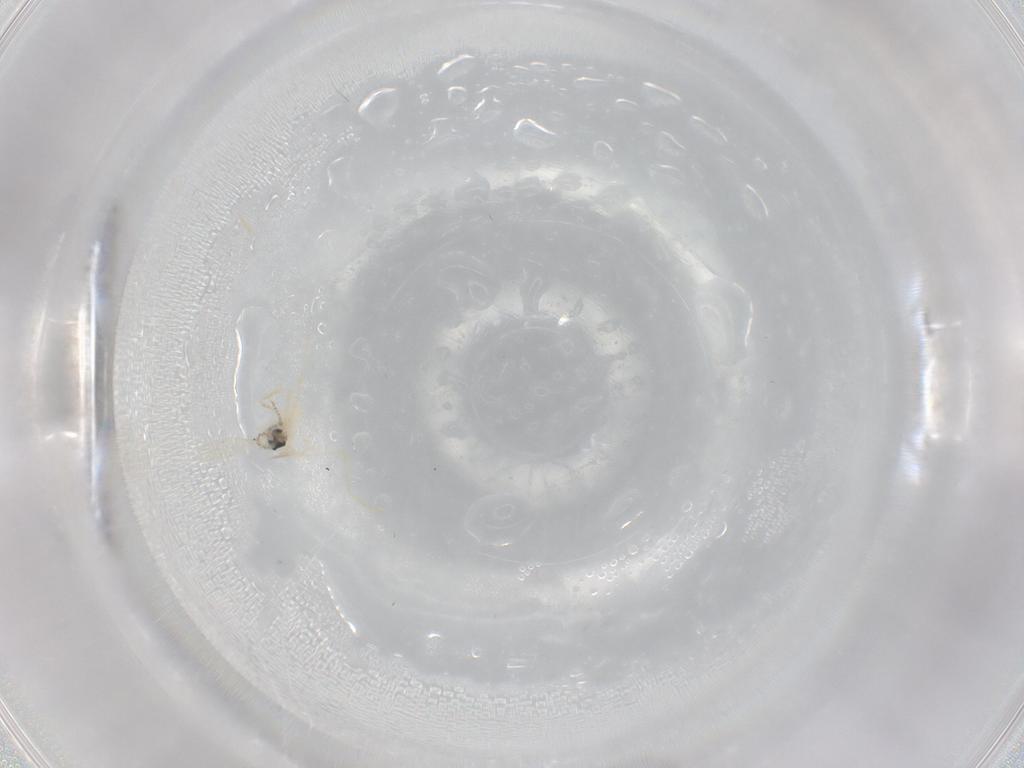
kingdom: Animalia
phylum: Arthropoda
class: Insecta
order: Diptera
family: Cecidomyiidae
